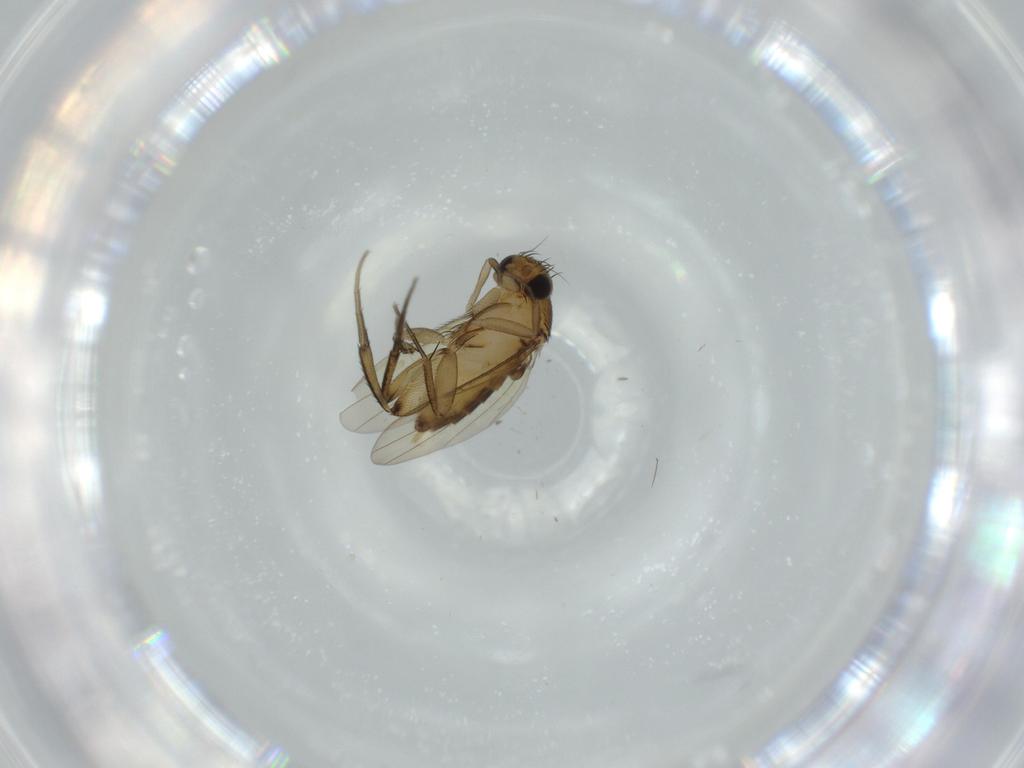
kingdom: Animalia
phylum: Arthropoda
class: Insecta
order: Diptera
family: Phoridae
